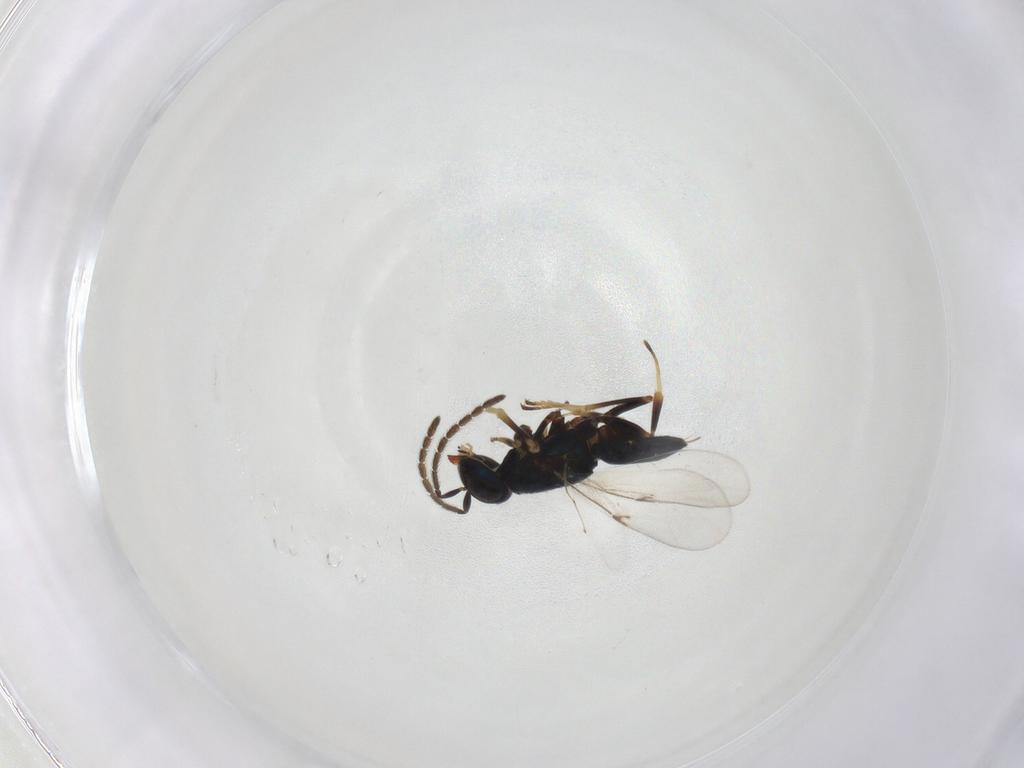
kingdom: Animalia
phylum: Arthropoda
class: Insecta
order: Hymenoptera
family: Encyrtidae
